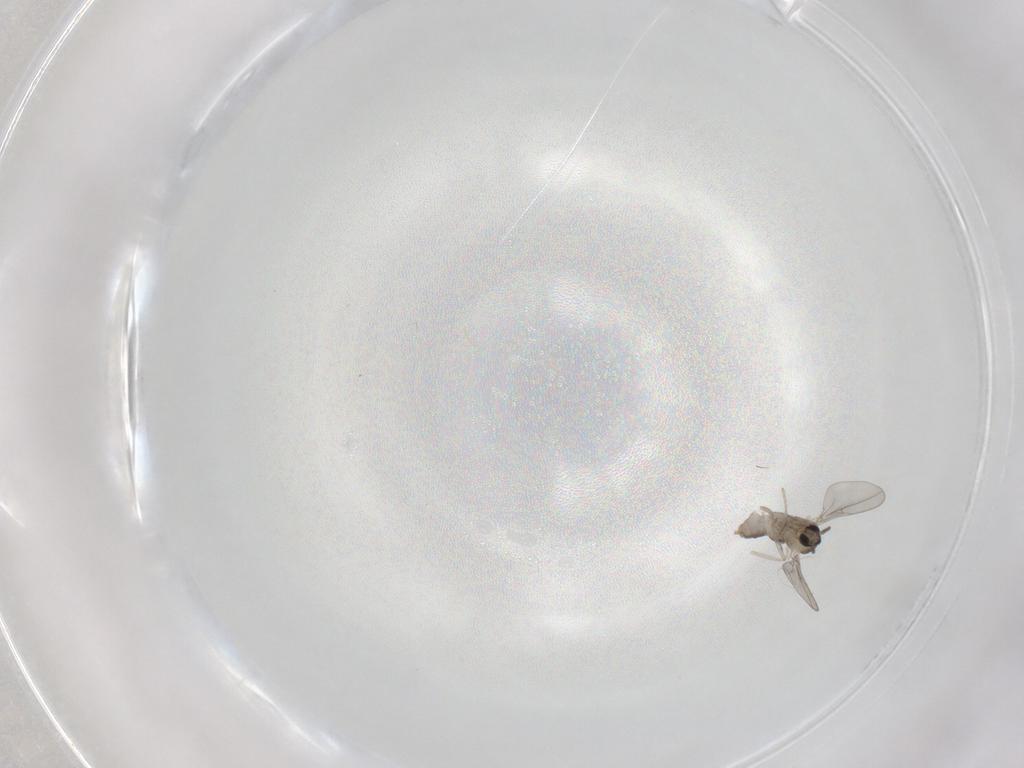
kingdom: Animalia
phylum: Arthropoda
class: Insecta
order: Diptera
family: Cecidomyiidae
